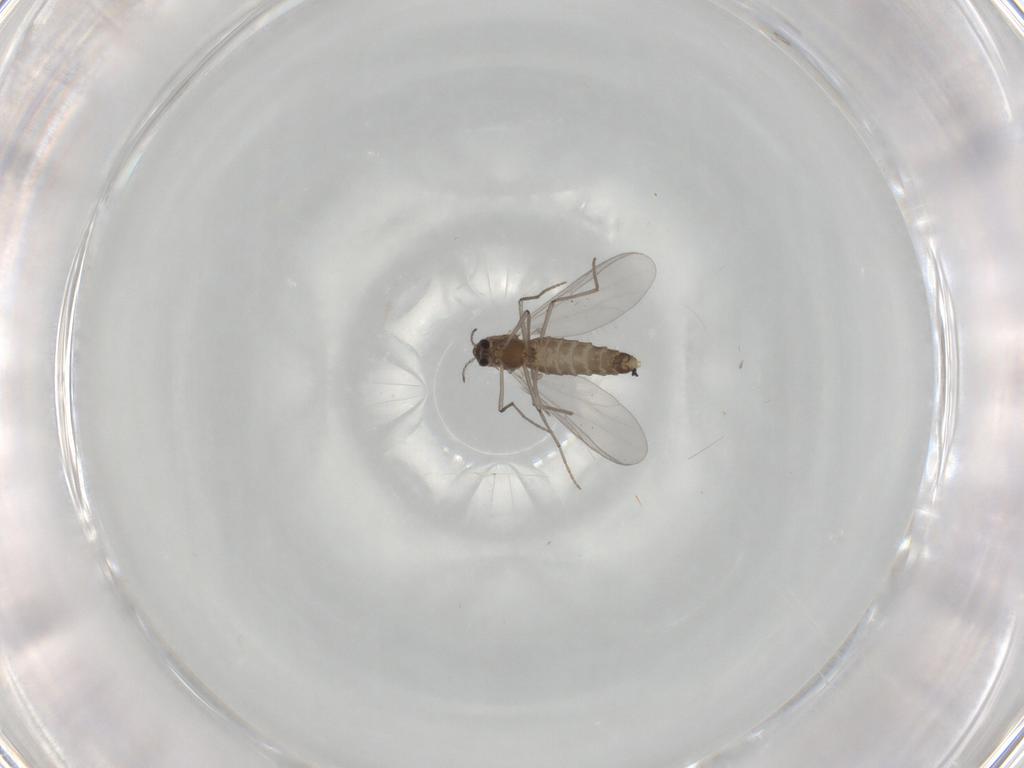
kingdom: Animalia
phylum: Arthropoda
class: Insecta
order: Diptera
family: Chironomidae
